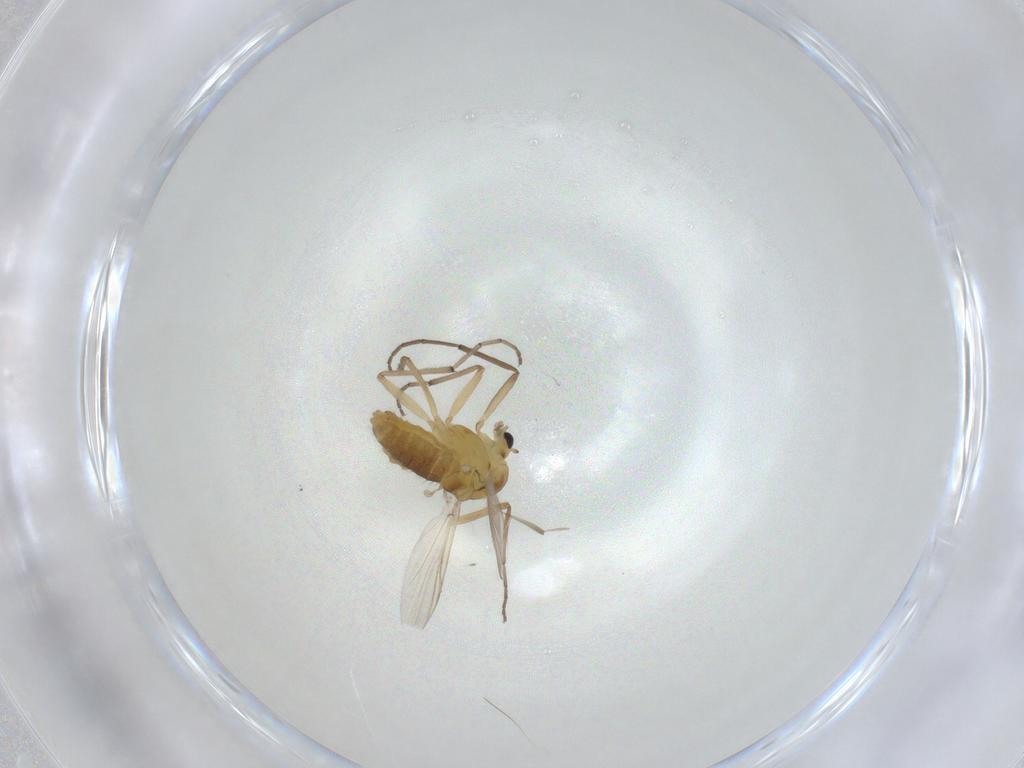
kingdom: Animalia
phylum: Arthropoda
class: Insecta
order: Diptera
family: Chironomidae
